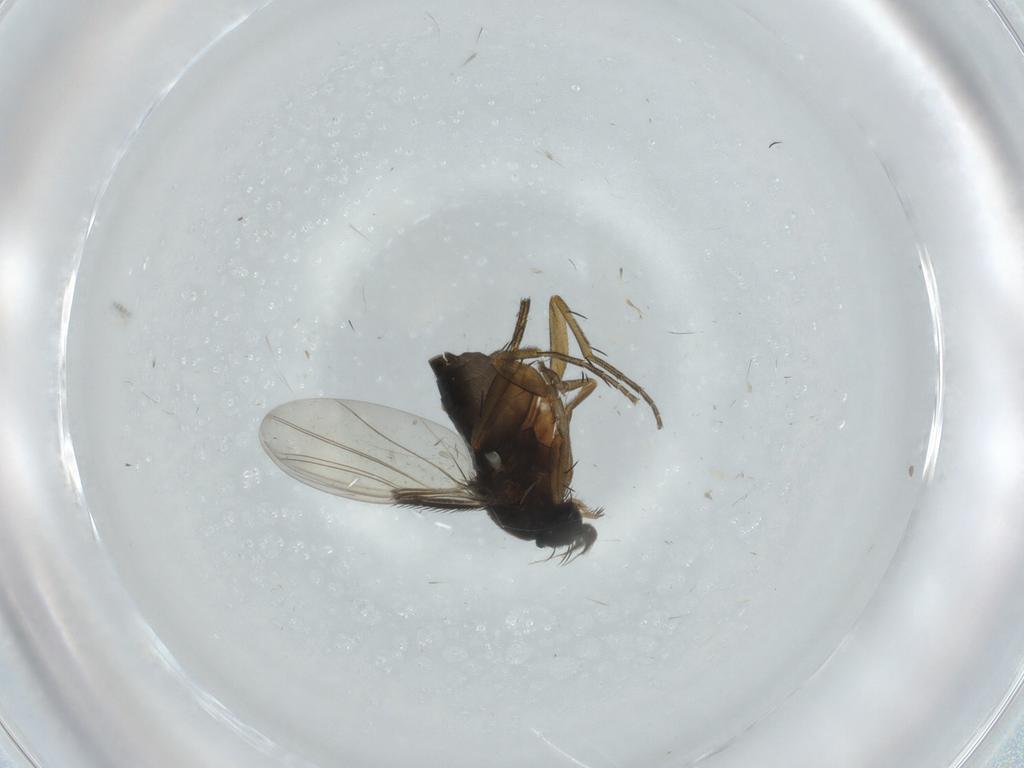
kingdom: Animalia
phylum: Arthropoda
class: Insecta
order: Diptera
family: Phoridae
